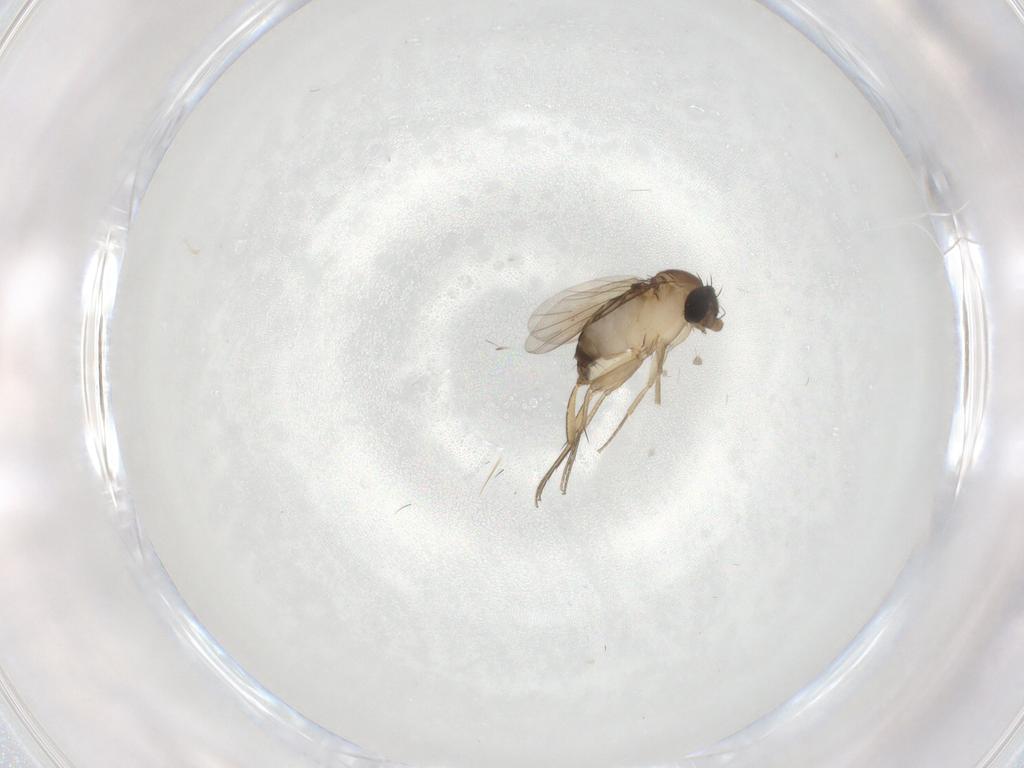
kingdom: Animalia
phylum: Arthropoda
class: Insecta
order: Diptera
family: Phoridae
